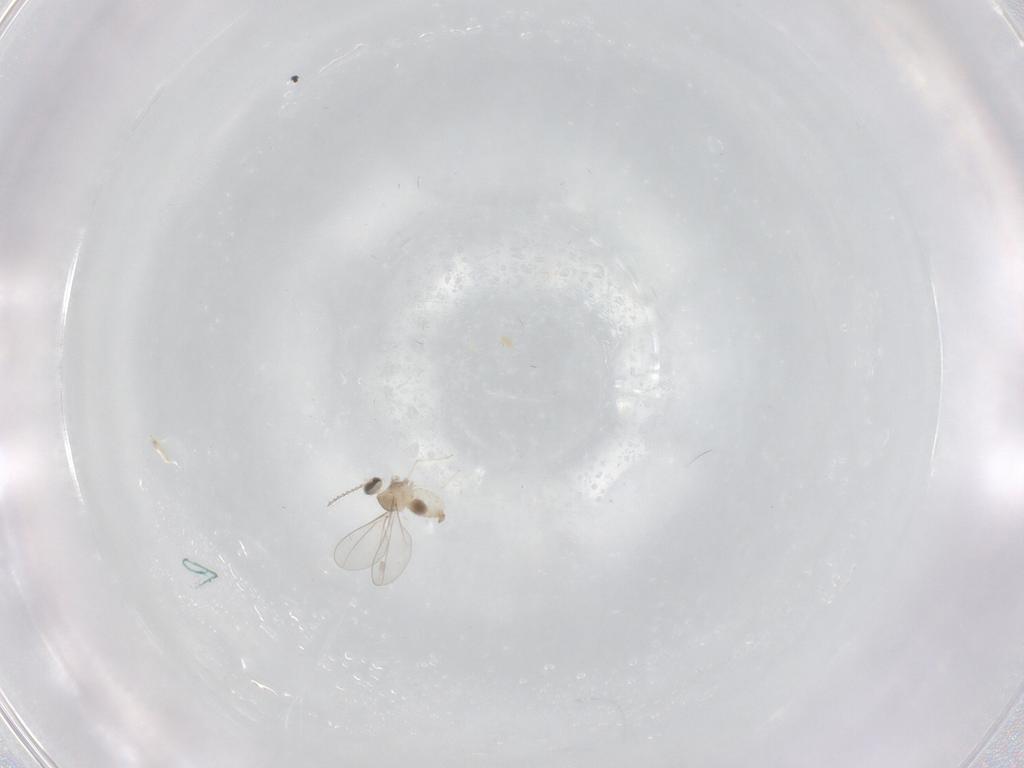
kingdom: Animalia
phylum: Arthropoda
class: Insecta
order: Diptera
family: Cecidomyiidae
